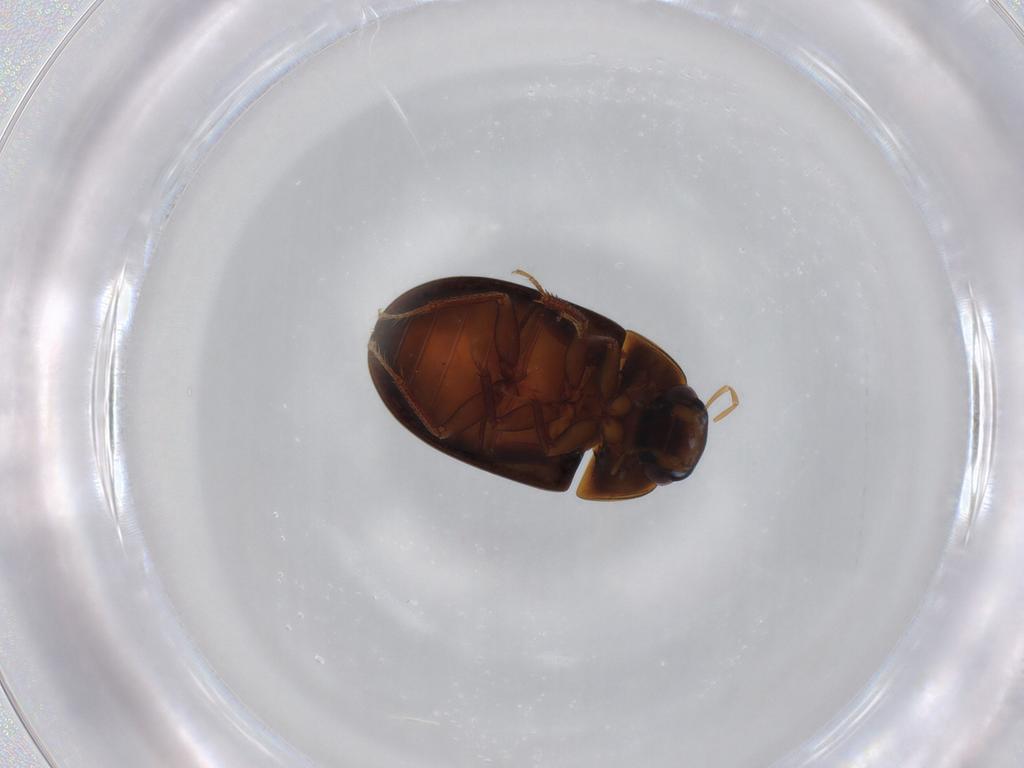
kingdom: Animalia
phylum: Arthropoda
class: Insecta
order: Coleoptera
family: Hydrophilidae
